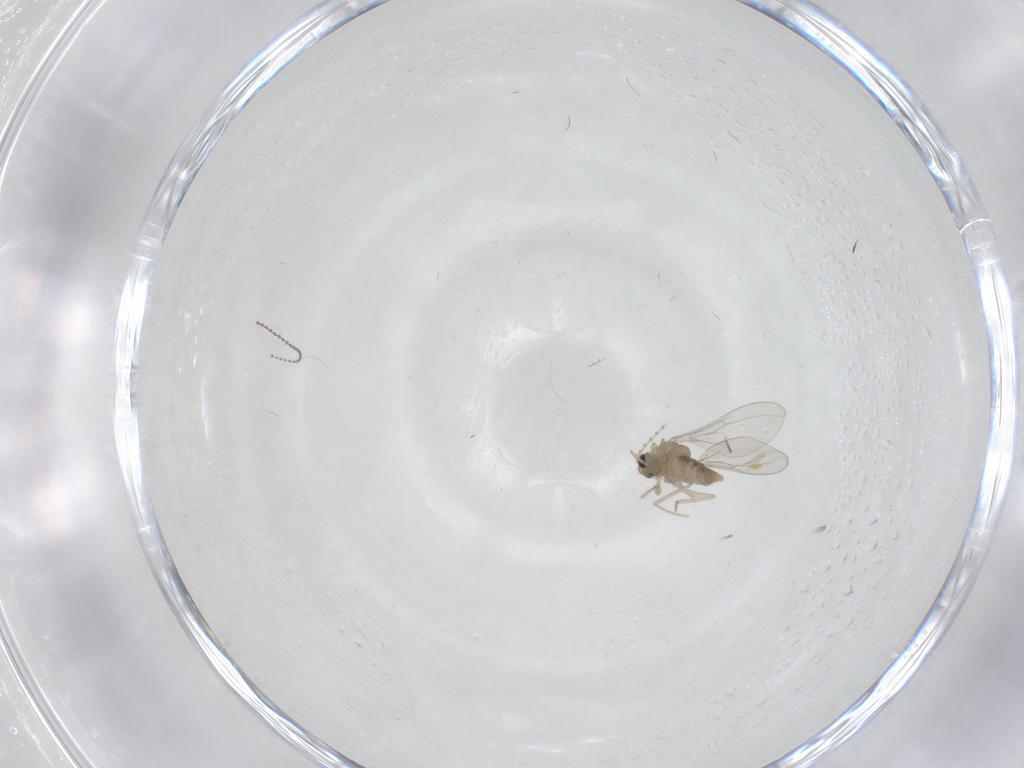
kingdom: Animalia
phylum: Arthropoda
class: Insecta
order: Diptera
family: Cecidomyiidae
